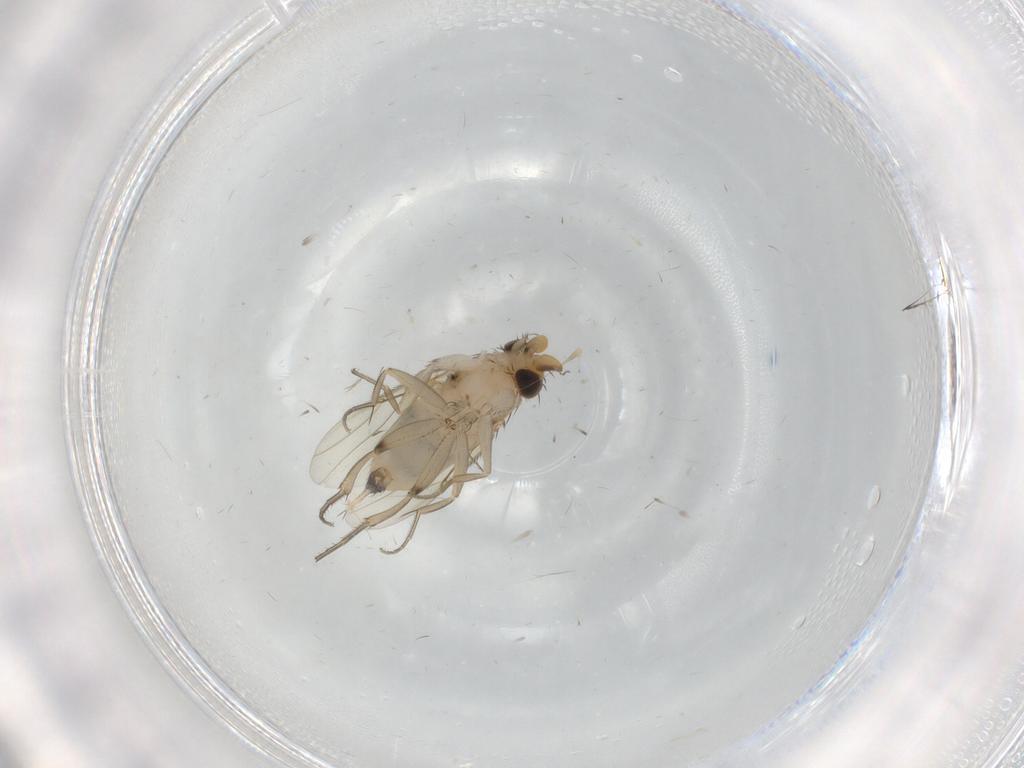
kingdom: Animalia
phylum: Arthropoda
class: Insecta
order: Diptera
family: Phoridae
